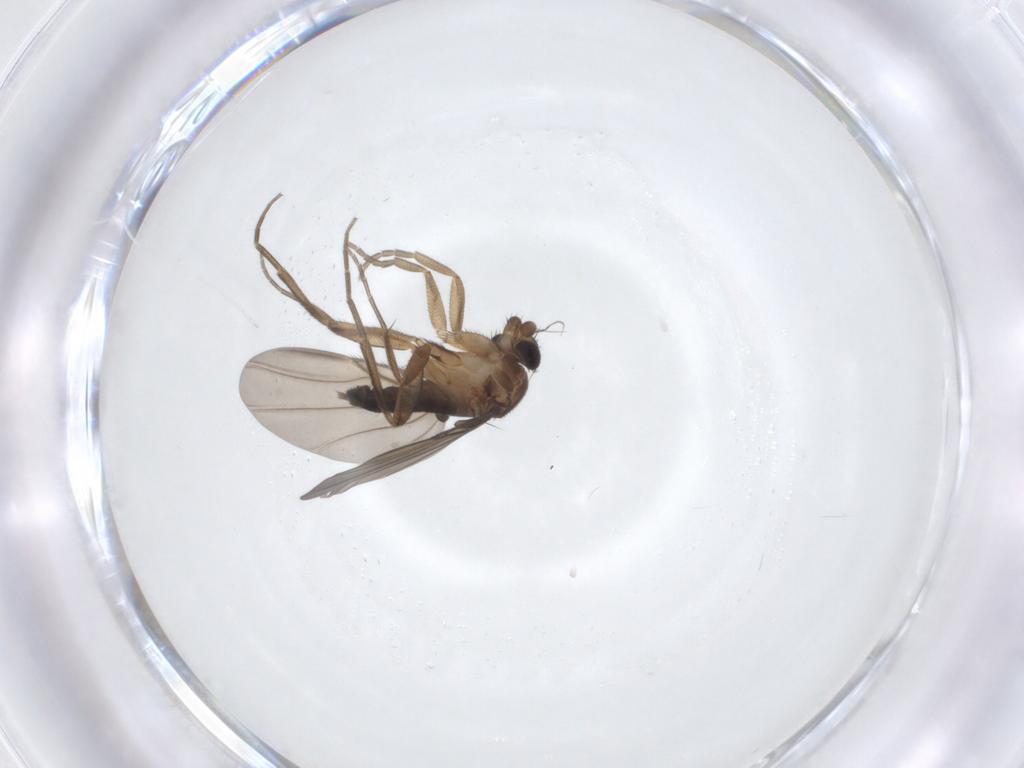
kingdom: Animalia
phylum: Arthropoda
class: Insecta
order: Diptera
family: Chironomidae
